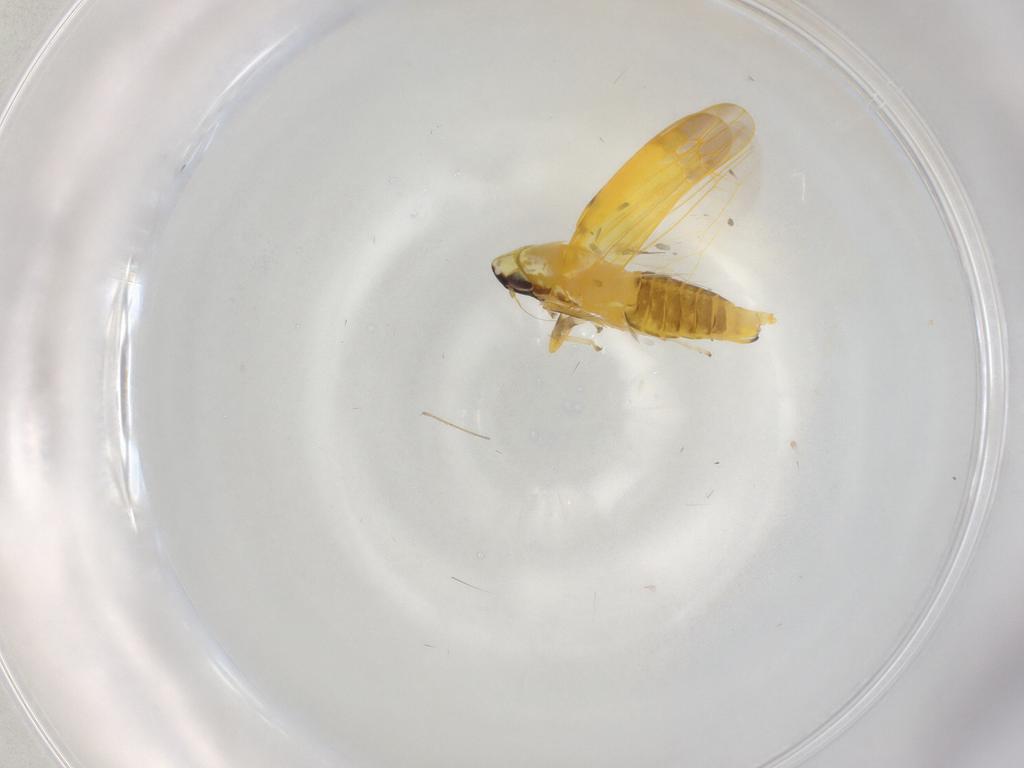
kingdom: Animalia
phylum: Arthropoda
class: Insecta
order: Hemiptera
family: Cicadellidae
